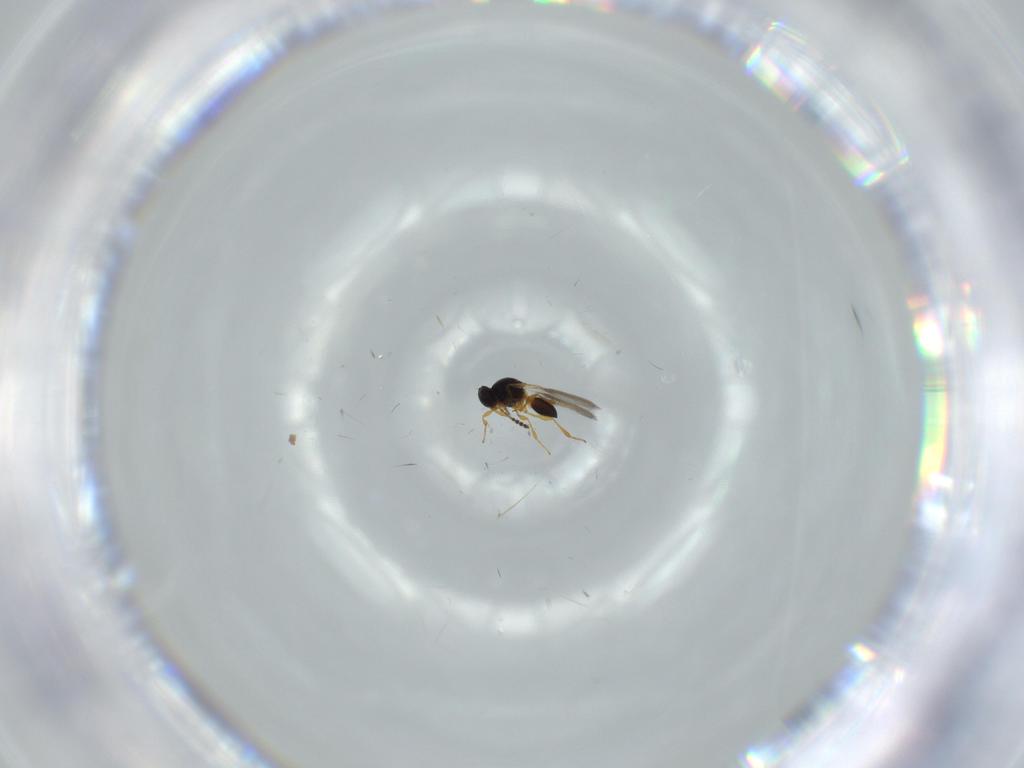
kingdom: Animalia
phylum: Arthropoda
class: Insecta
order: Hymenoptera
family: Platygastridae
